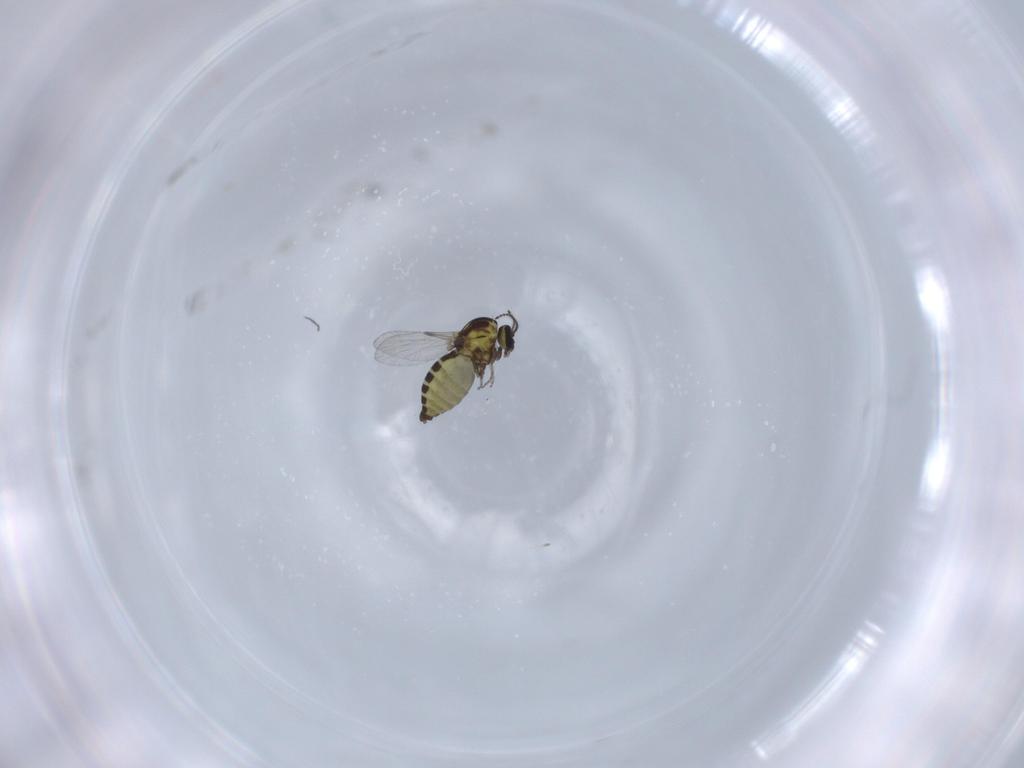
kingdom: Animalia
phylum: Arthropoda
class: Insecta
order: Diptera
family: Ceratopogonidae
